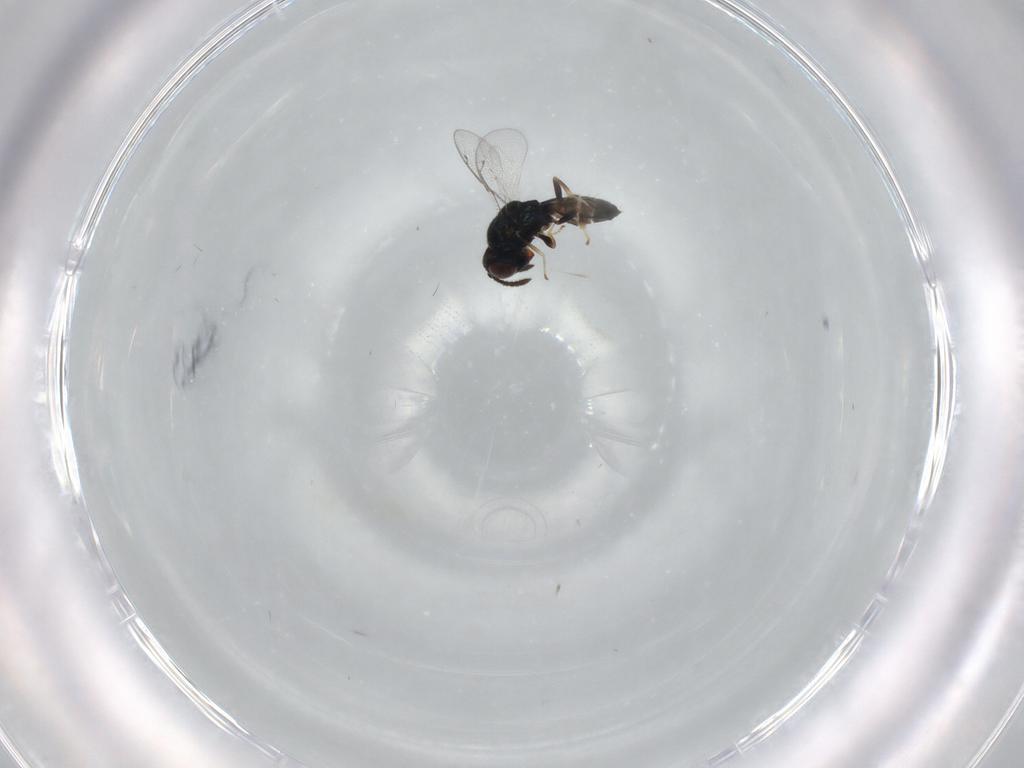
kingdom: Animalia
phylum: Arthropoda
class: Insecta
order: Hymenoptera
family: Pteromalidae
